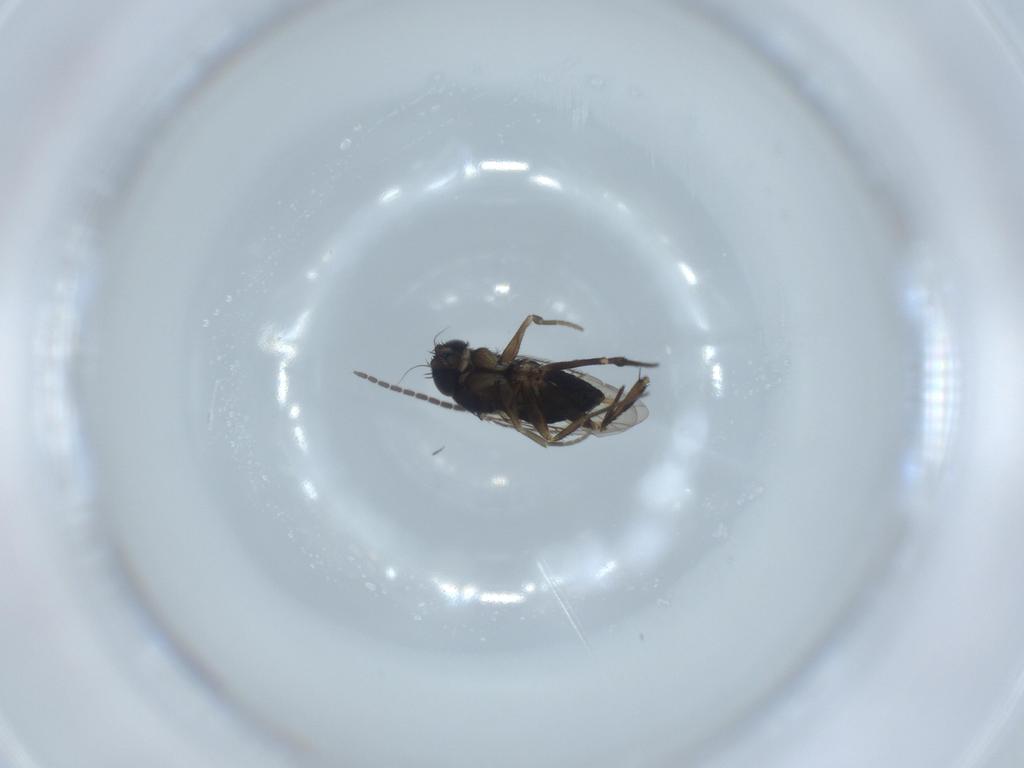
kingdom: Animalia
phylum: Arthropoda
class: Insecta
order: Diptera
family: Phoridae
